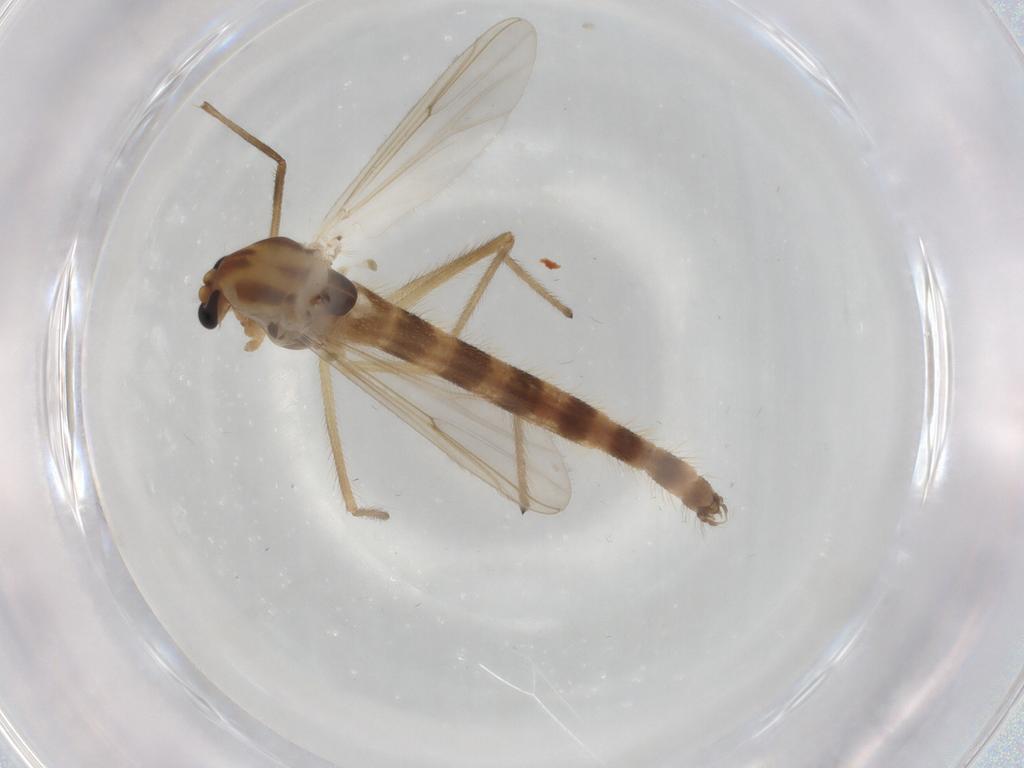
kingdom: Animalia
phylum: Arthropoda
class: Insecta
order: Diptera
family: Chironomidae
